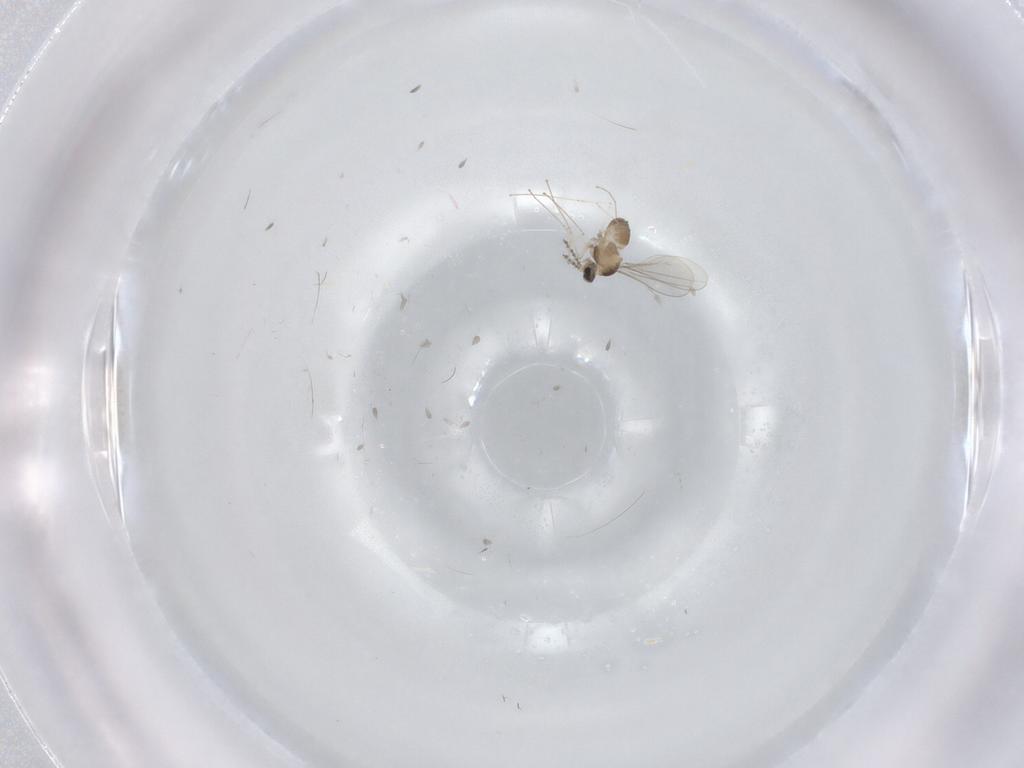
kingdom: Animalia
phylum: Arthropoda
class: Insecta
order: Diptera
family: Cecidomyiidae
